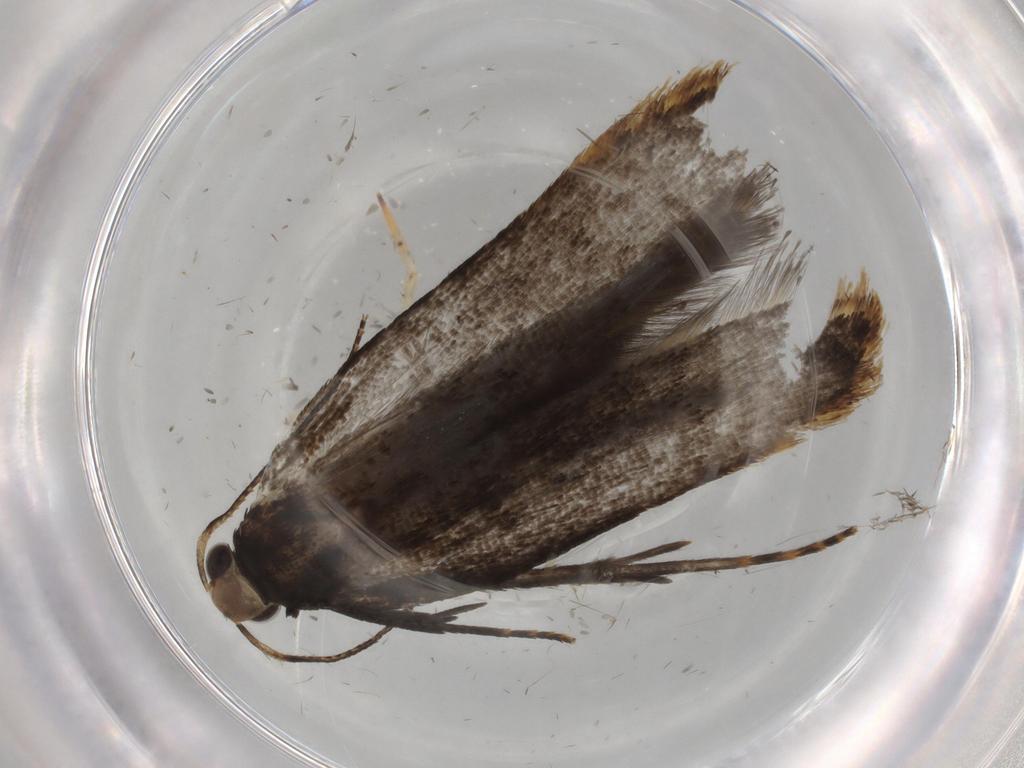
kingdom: Animalia
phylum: Arthropoda
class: Insecta
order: Lepidoptera
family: Gelechiidae
